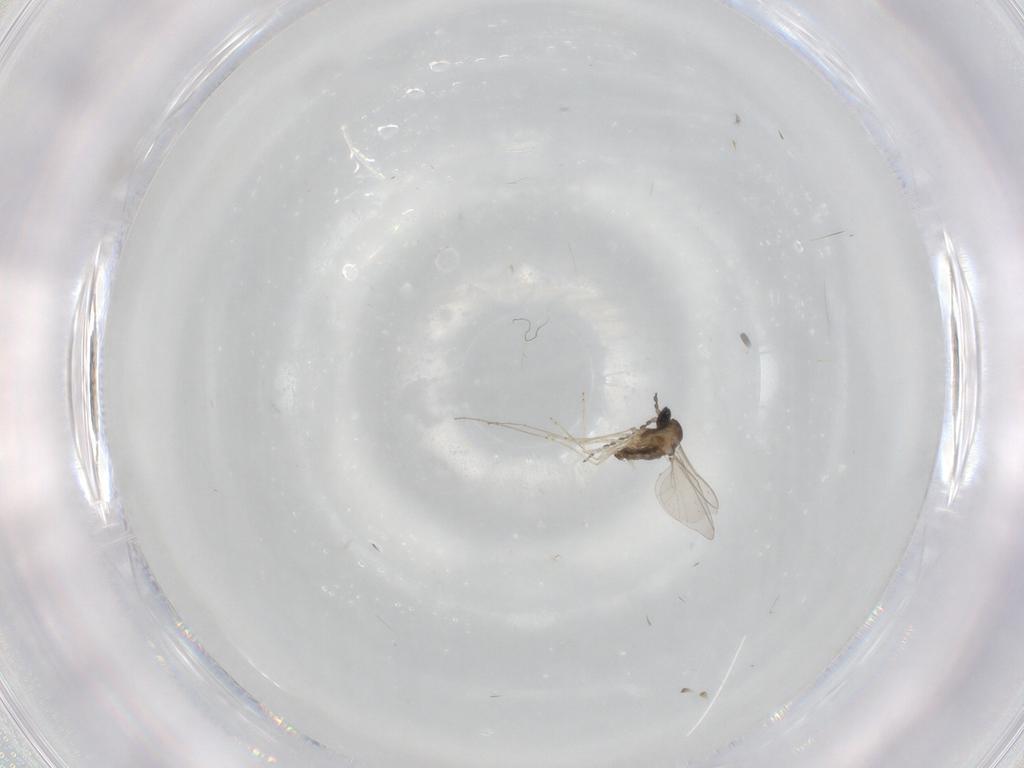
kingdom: Animalia
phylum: Arthropoda
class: Insecta
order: Diptera
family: Cecidomyiidae
